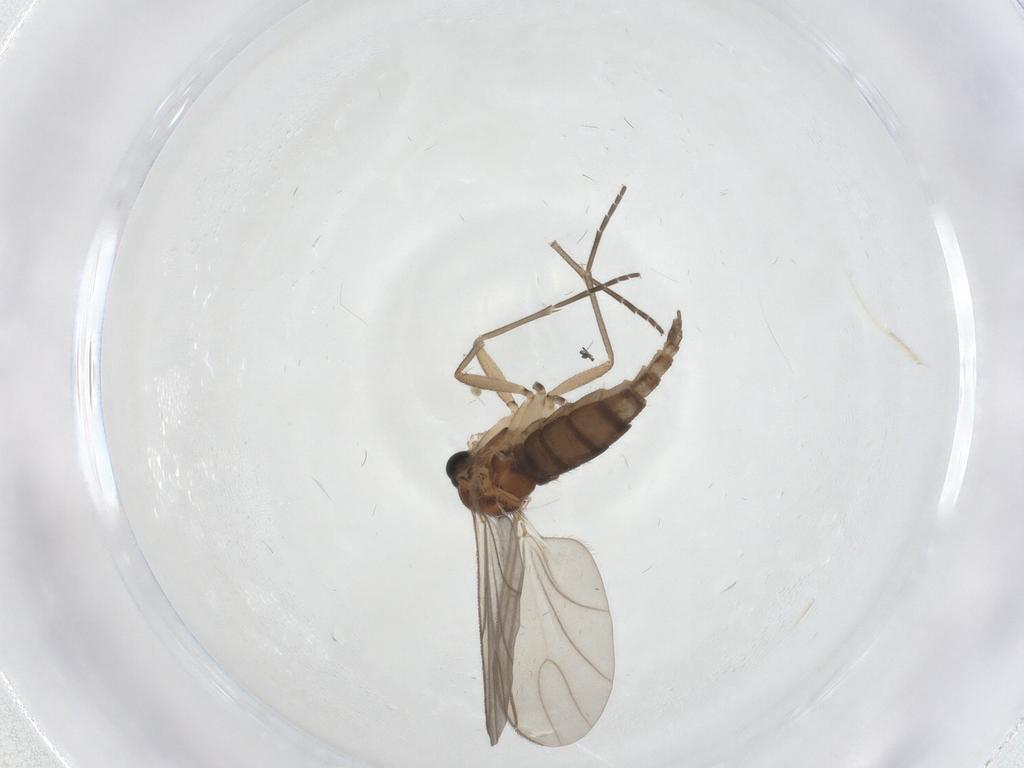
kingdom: Animalia
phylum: Arthropoda
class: Insecta
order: Diptera
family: Sciaridae
